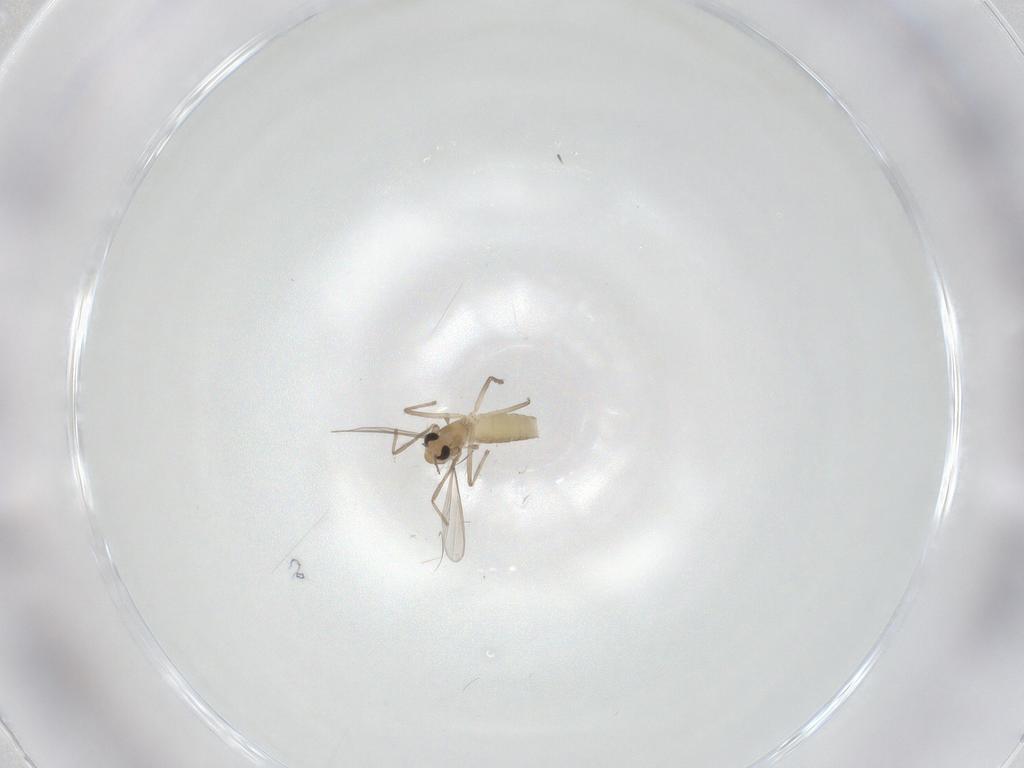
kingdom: Animalia
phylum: Arthropoda
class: Insecta
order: Diptera
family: Chironomidae
